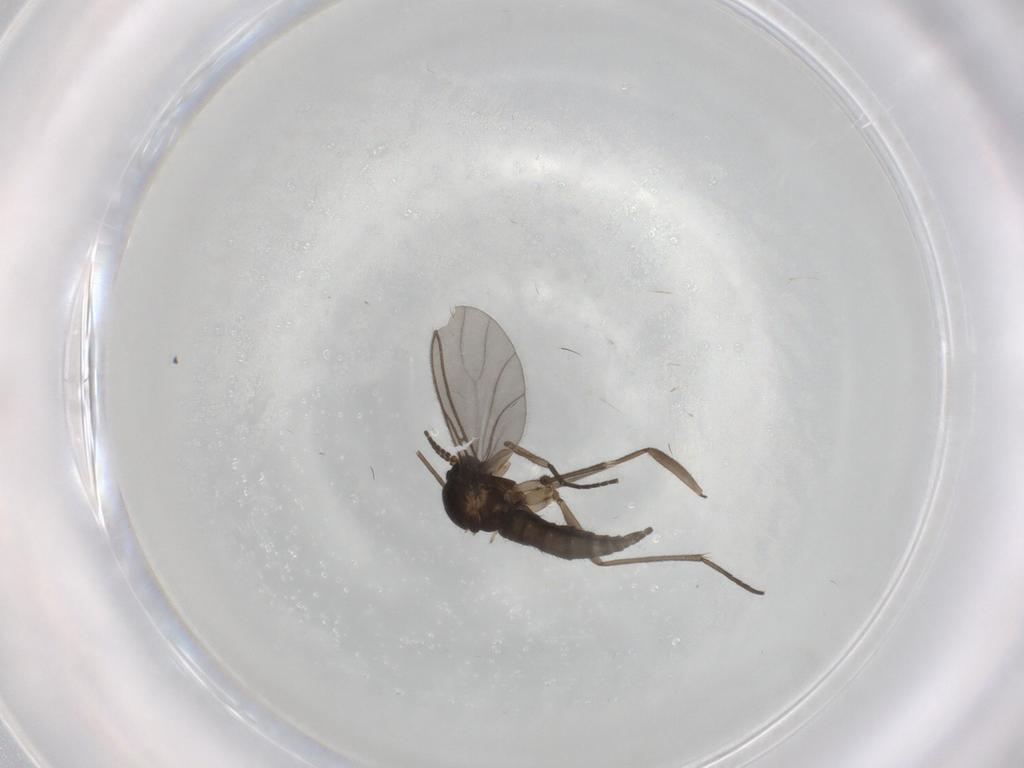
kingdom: Animalia
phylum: Arthropoda
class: Insecta
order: Diptera
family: Sciaridae
